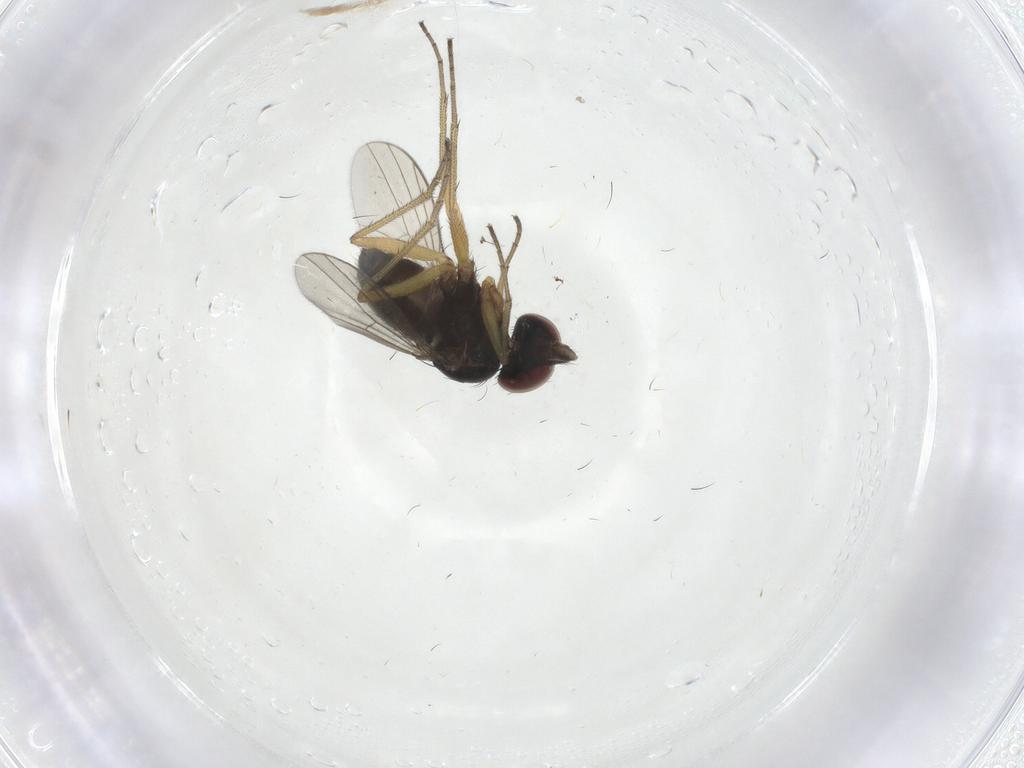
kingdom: Animalia
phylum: Arthropoda
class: Insecta
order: Diptera
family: Dolichopodidae
